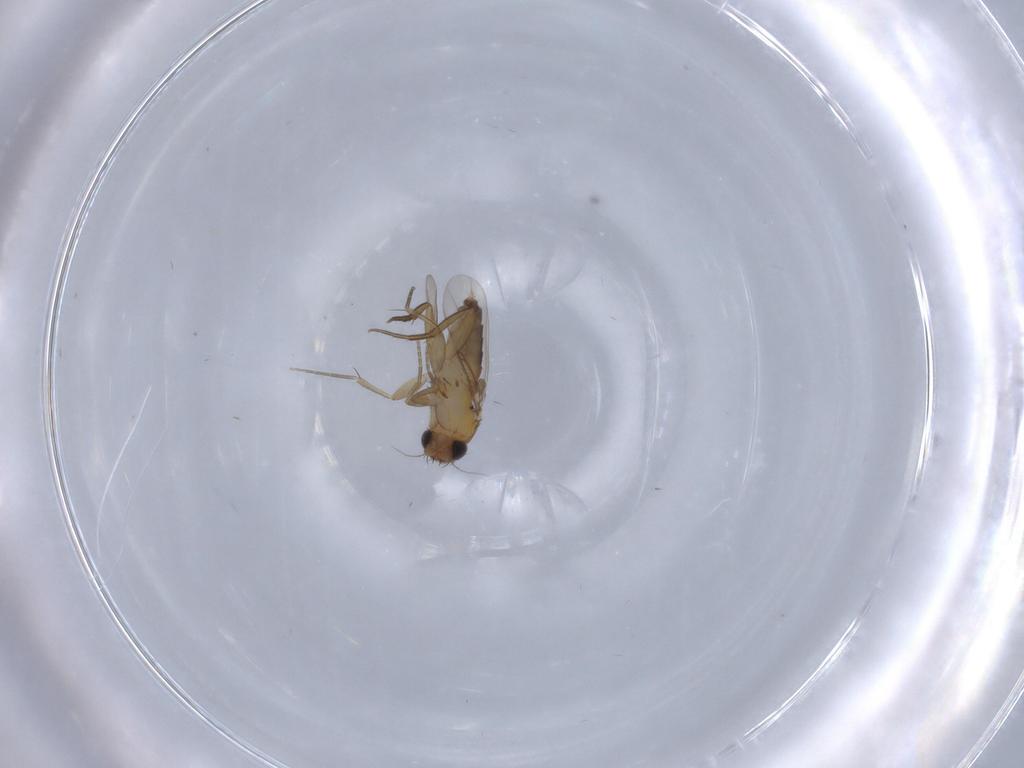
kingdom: Animalia
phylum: Arthropoda
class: Insecta
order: Diptera
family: Phoridae
